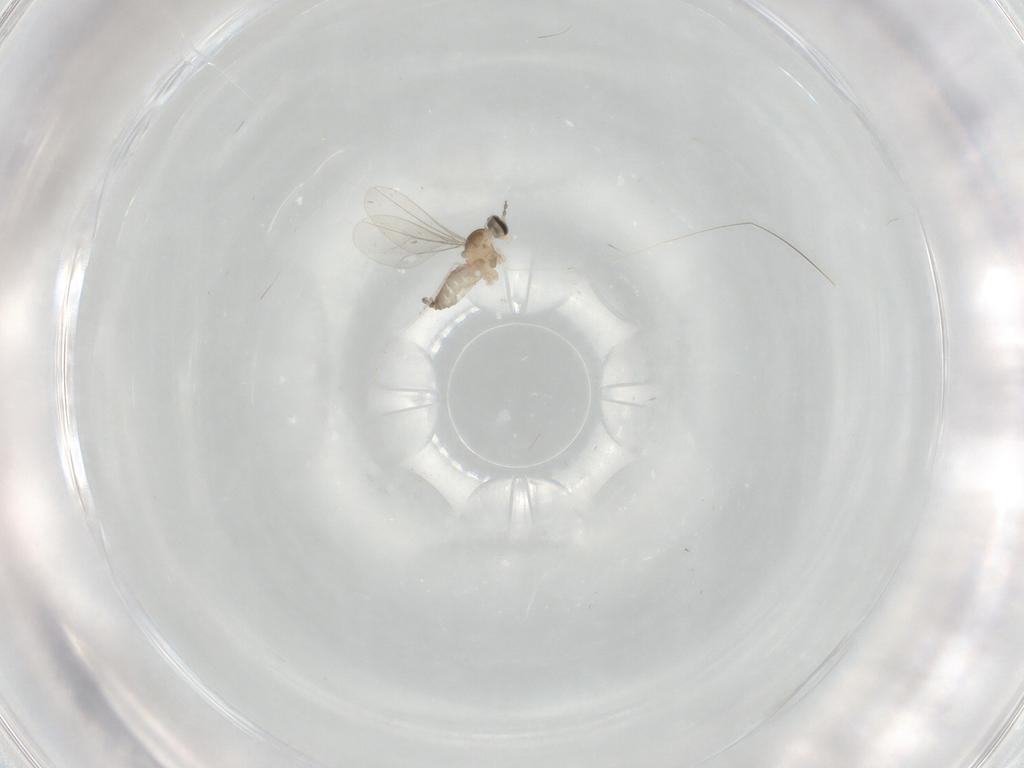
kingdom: Animalia
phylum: Arthropoda
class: Insecta
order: Diptera
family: Cecidomyiidae
